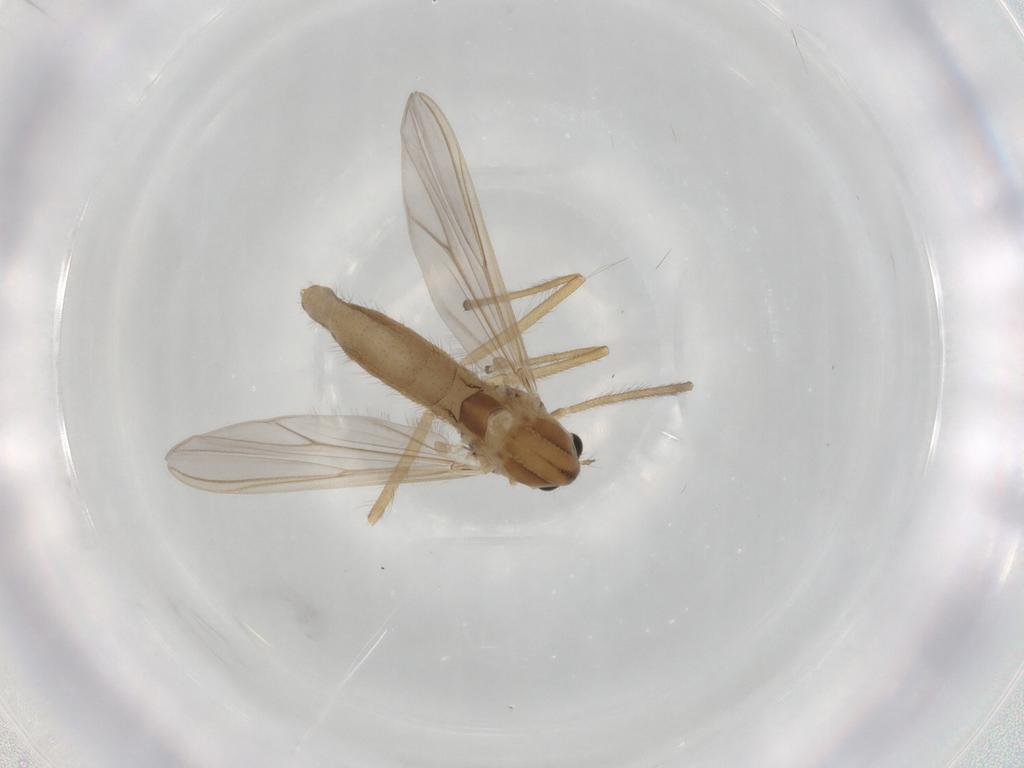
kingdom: Animalia
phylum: Arthropoda
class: Insecta
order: Diptera
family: Chironomidae
